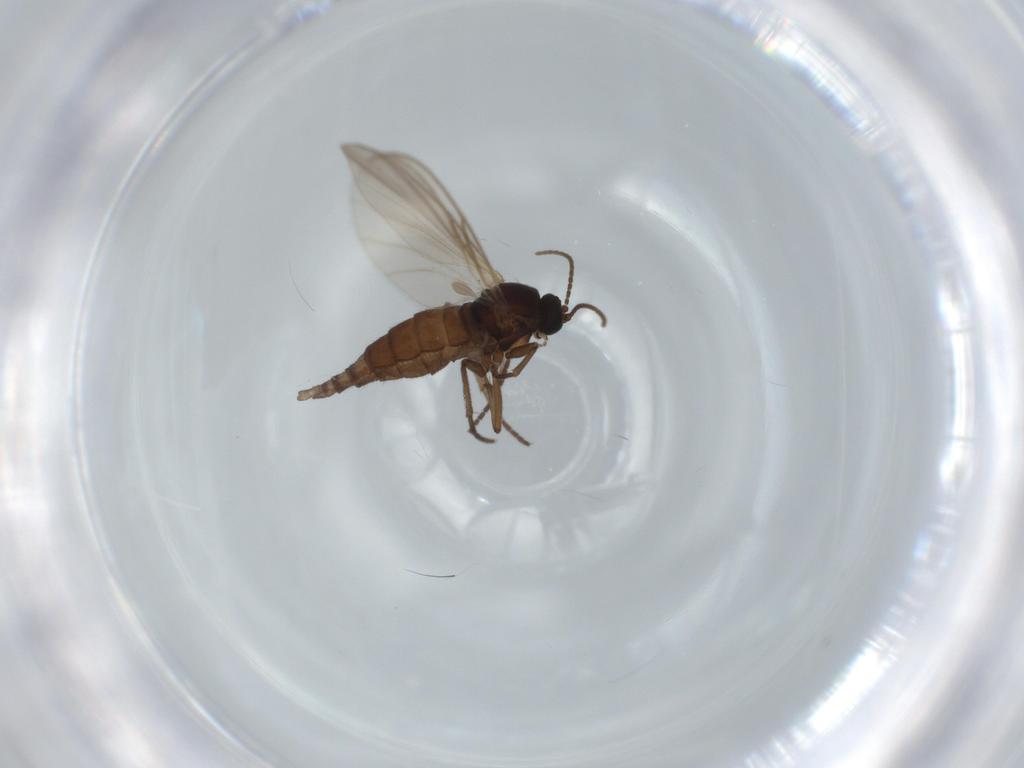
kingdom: Animalia
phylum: Arthropoda
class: Insecta
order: Diptera
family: Sciaridae
